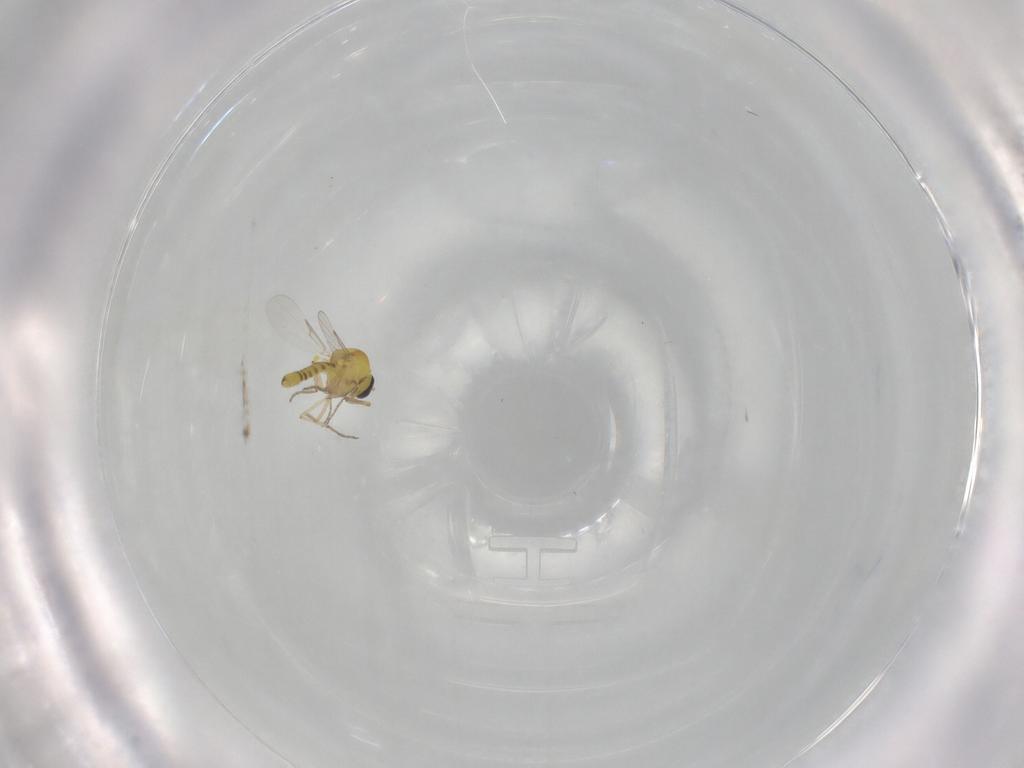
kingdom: Animalia
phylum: Arthropoda
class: Insecta
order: Diptera
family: Ceratopogonidae
